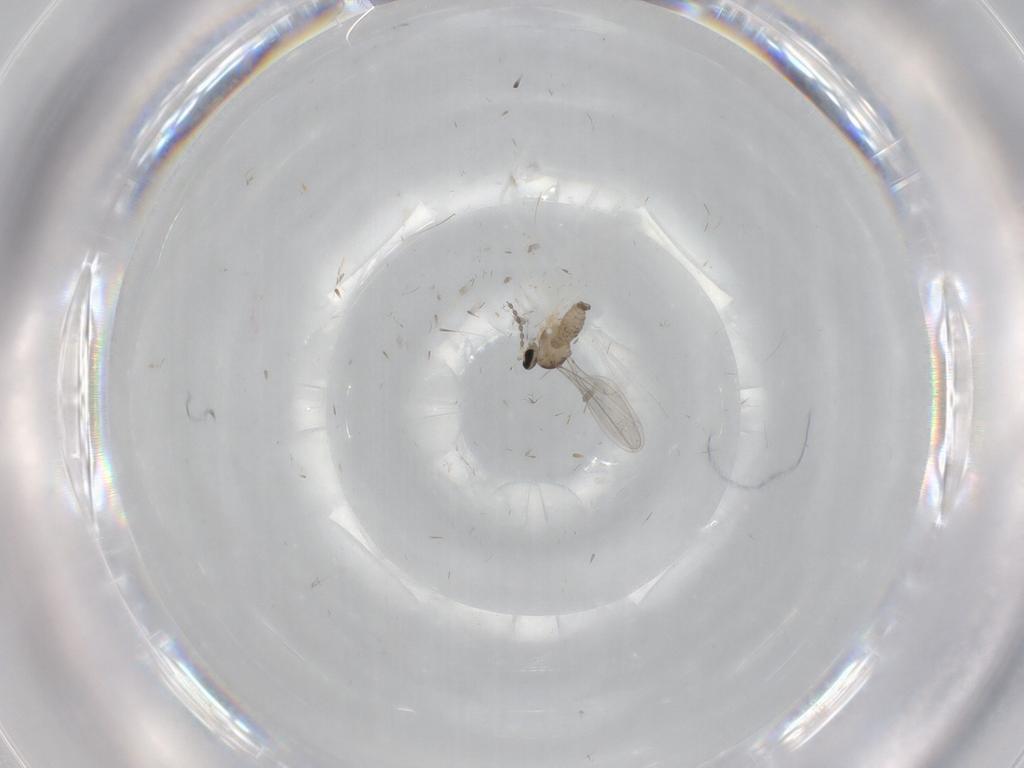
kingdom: Animalia
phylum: Arthropoda
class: Insecta
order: Diptera
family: Cecidomyiidae
